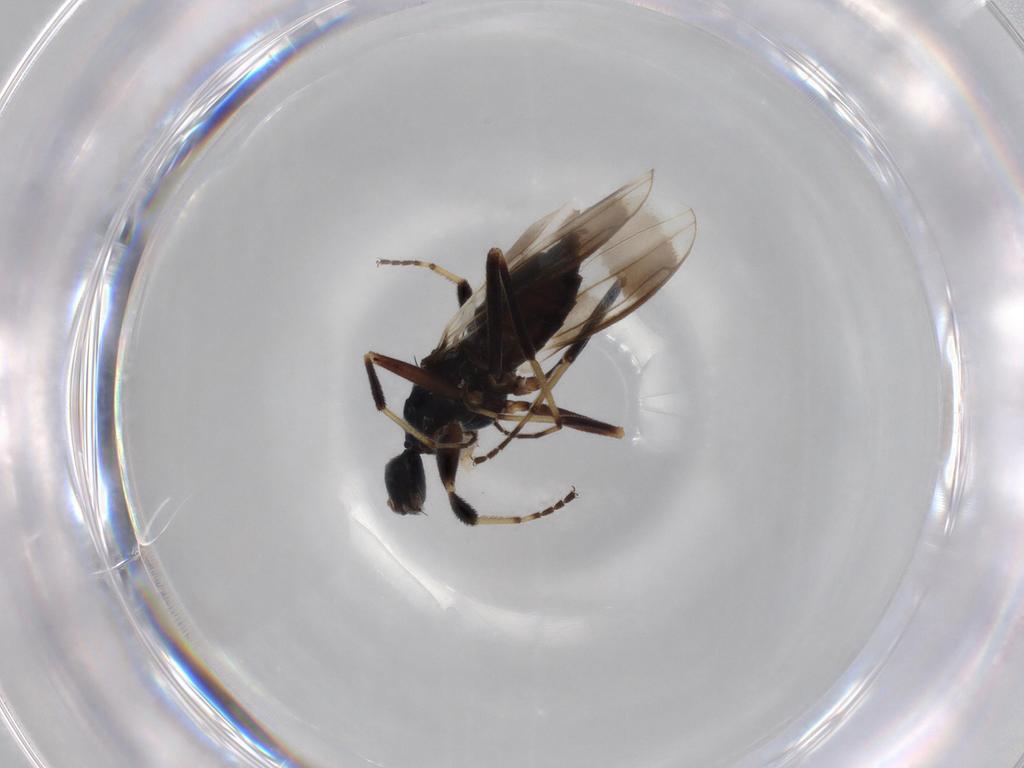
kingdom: Animalia
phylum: Arthropoda
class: Insecta
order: Diptera
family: Hybotidae
